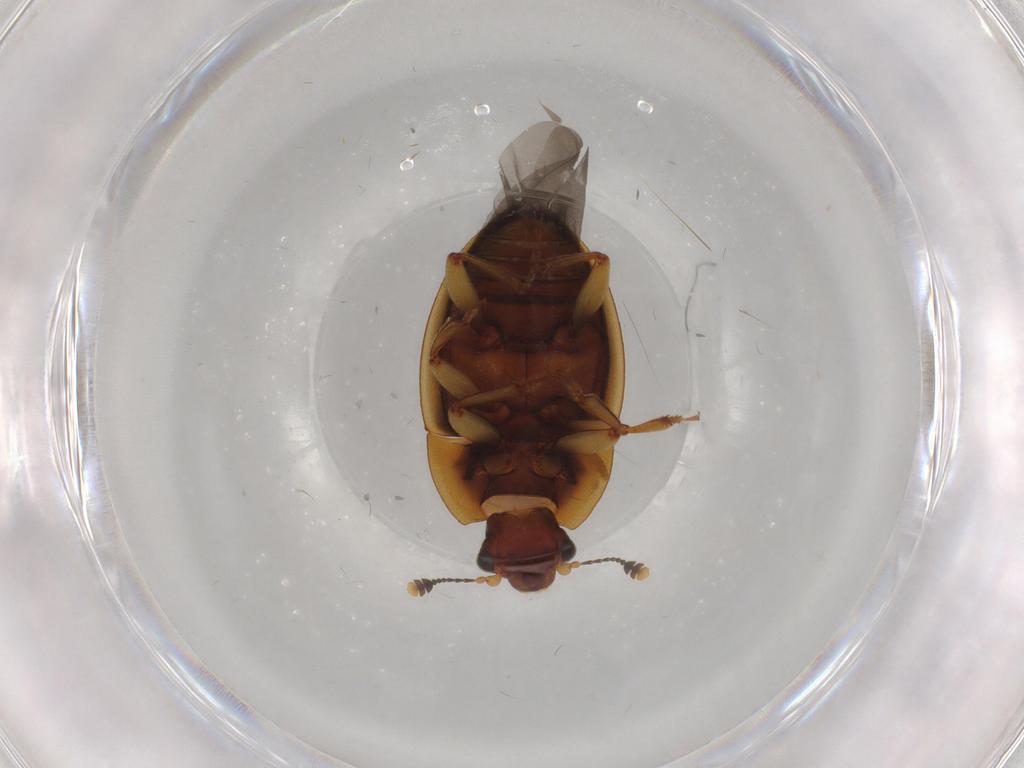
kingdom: Animalia
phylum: Arthropoda
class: Insecta
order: Coleoptera
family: Nitidulidae
